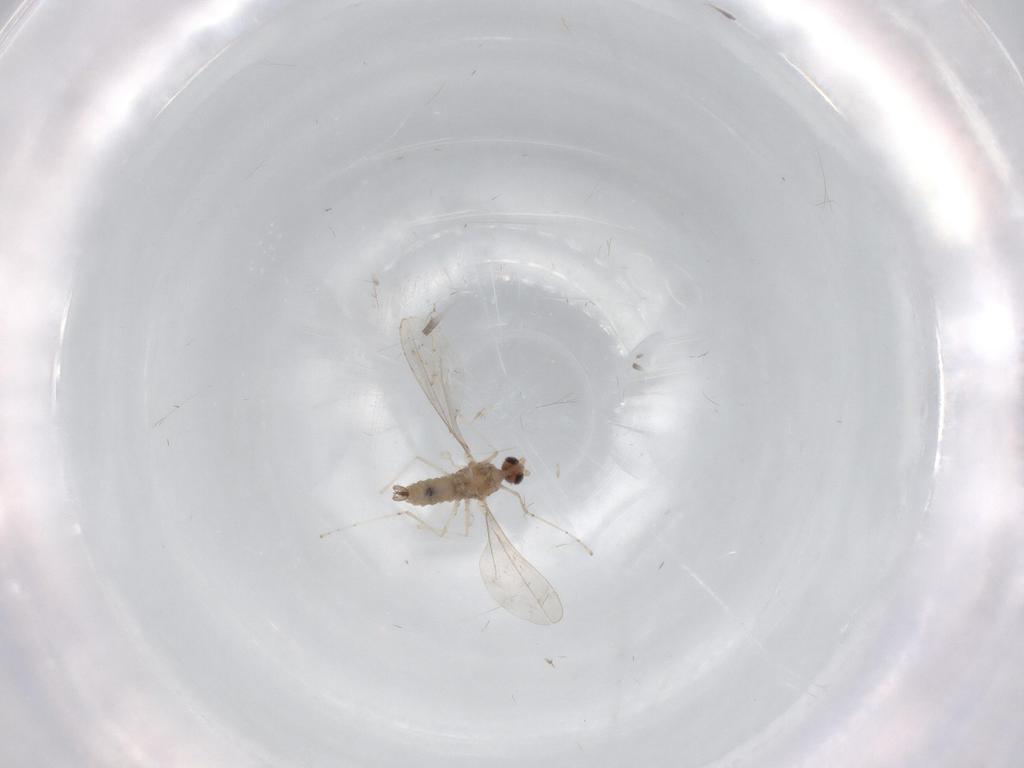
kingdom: Animalia
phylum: Arthropoda
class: Insecta
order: Diptera
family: Cecidomyiidae
